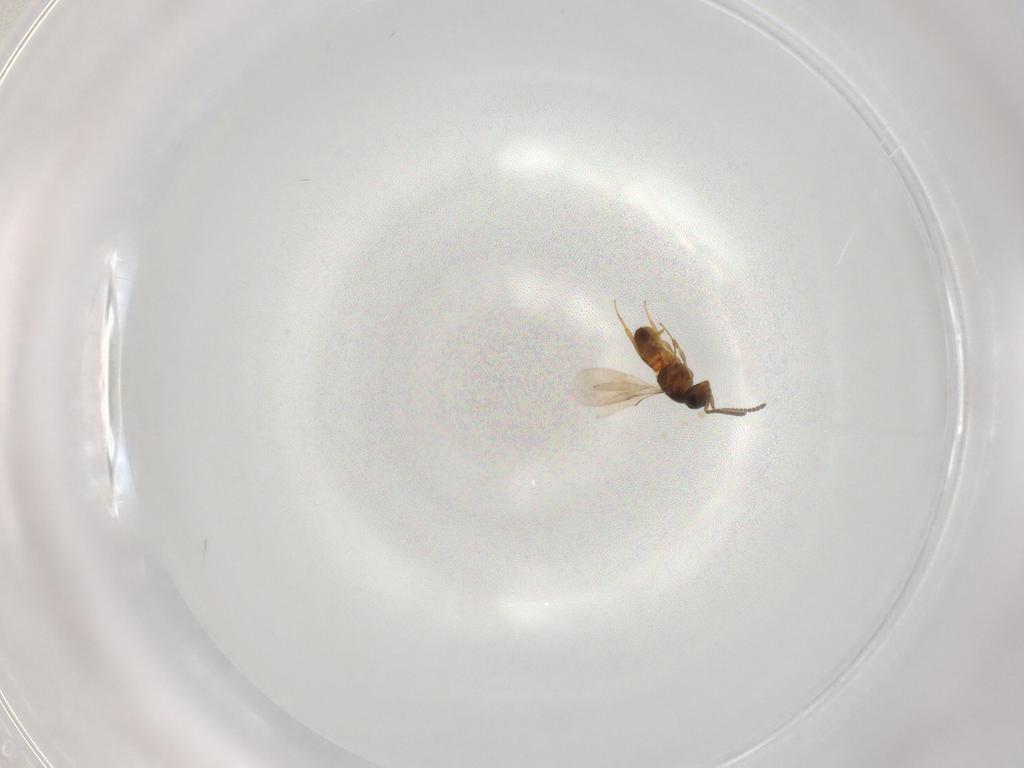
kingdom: Animalia
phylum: Arthropoda
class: Insecta
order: Hymenoptera
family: Scelionidae
